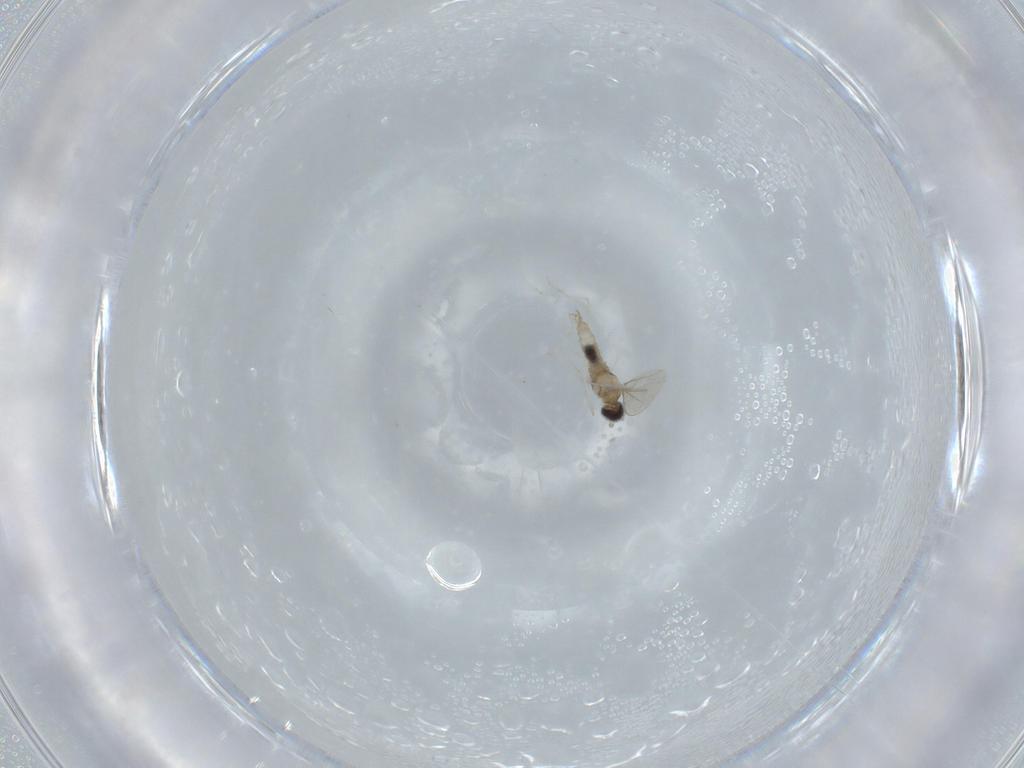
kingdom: Animalia
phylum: Arthropoda
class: Insecta
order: Diptera
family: Cecidomyiidae
